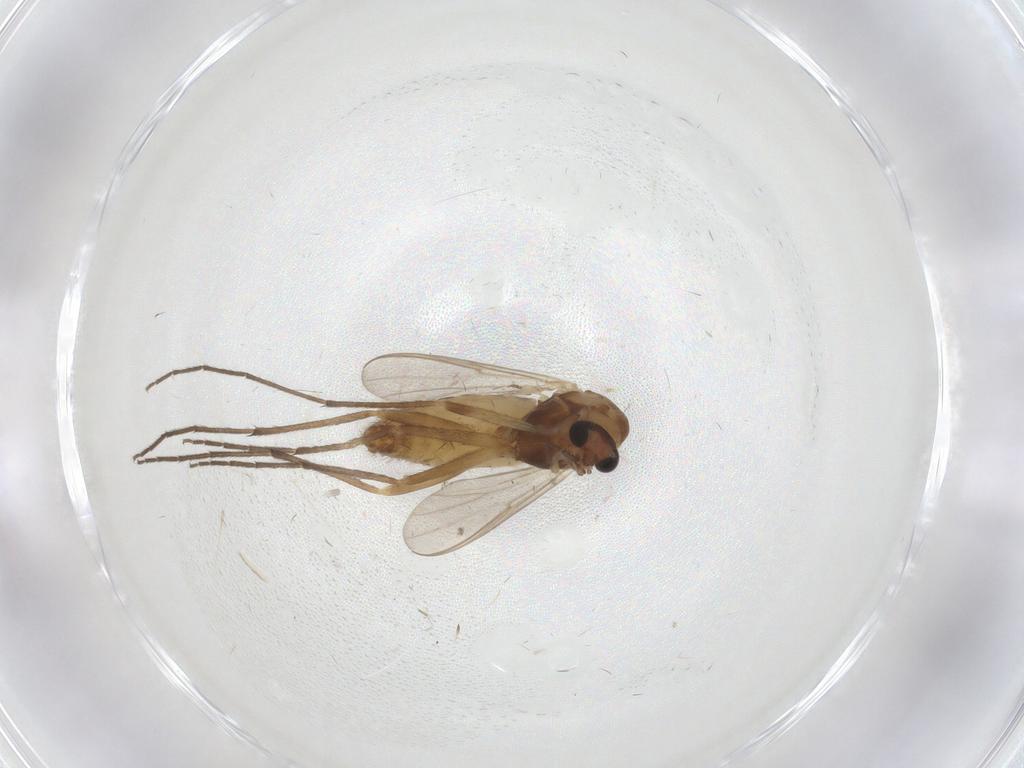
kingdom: Animalia
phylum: Arthropoda
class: Insecta
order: Diptera
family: Chironomidae
